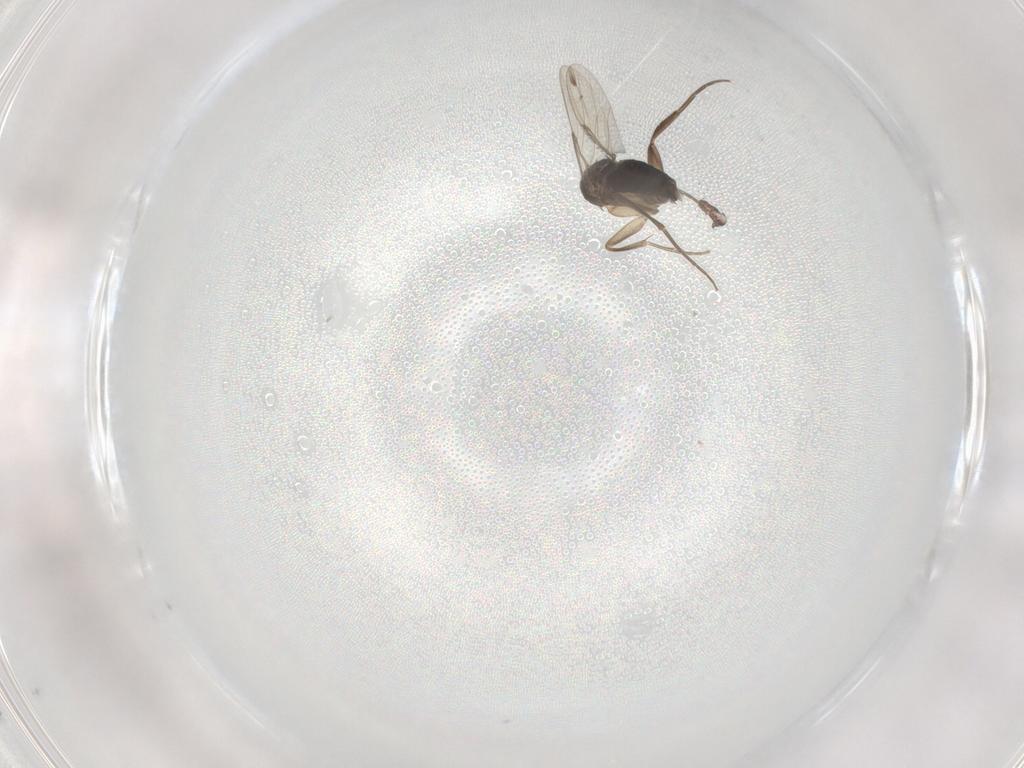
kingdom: Animalia
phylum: Arthropoda
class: Insecta
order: Diptera
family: Phoridae
